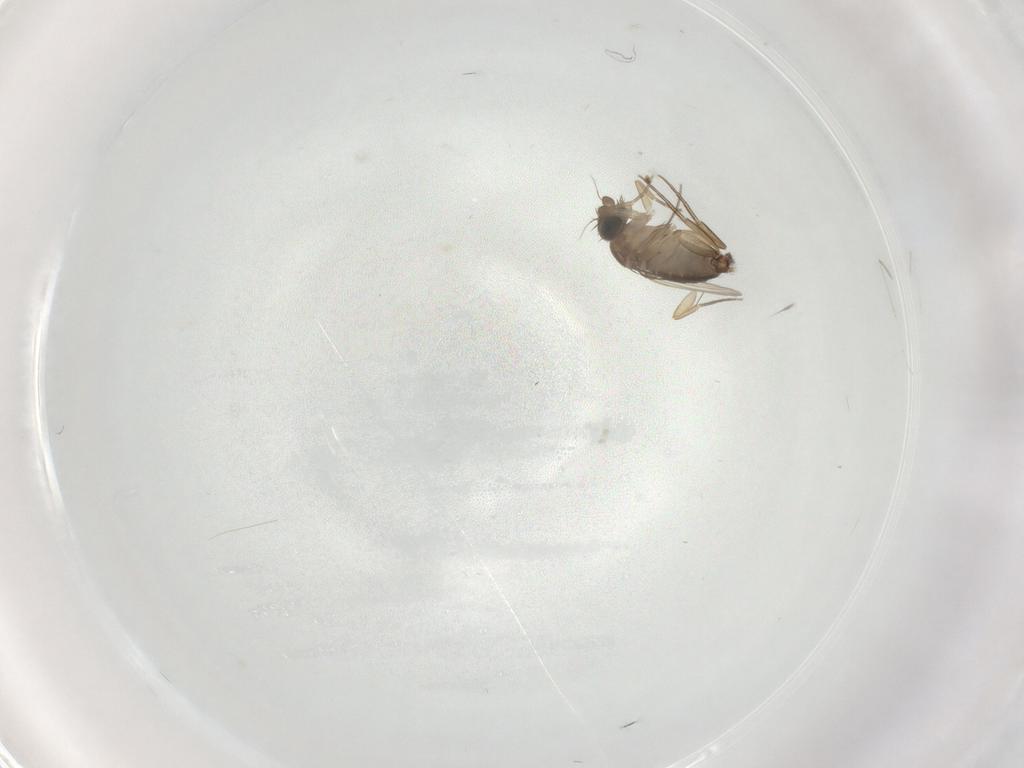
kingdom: Animalia
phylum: Arthropoda
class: Insecta
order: Diptera
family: Phoridae
